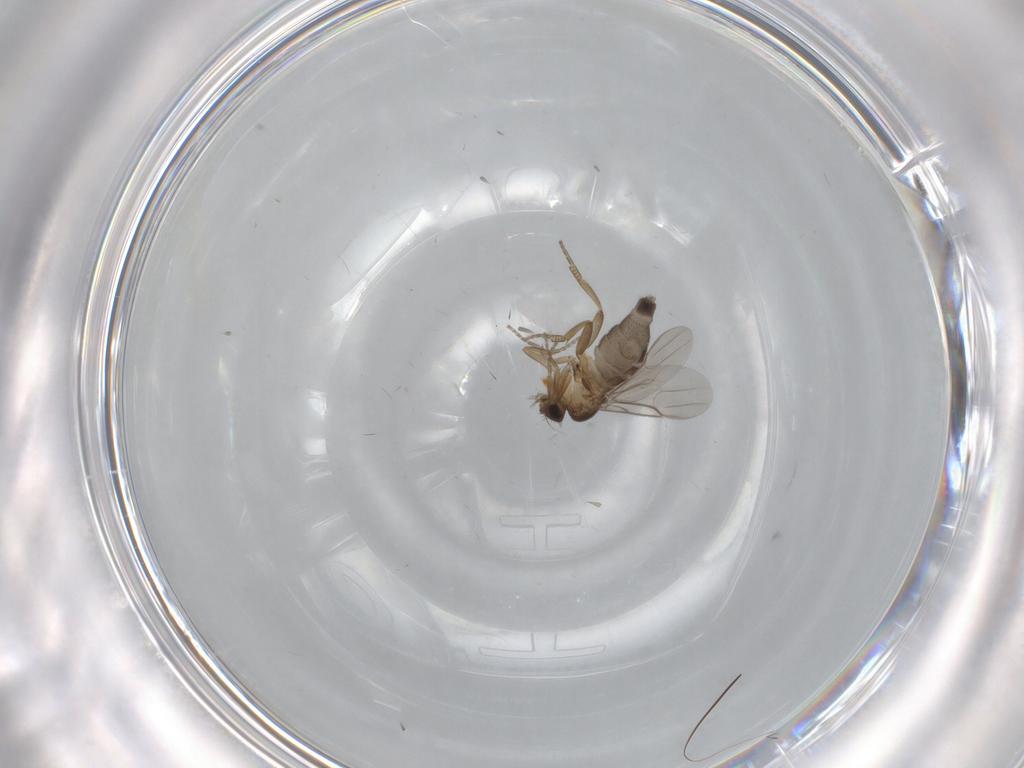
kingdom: Animalia
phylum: Arthropoda
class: Insecta
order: Diptera
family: Phoridae
